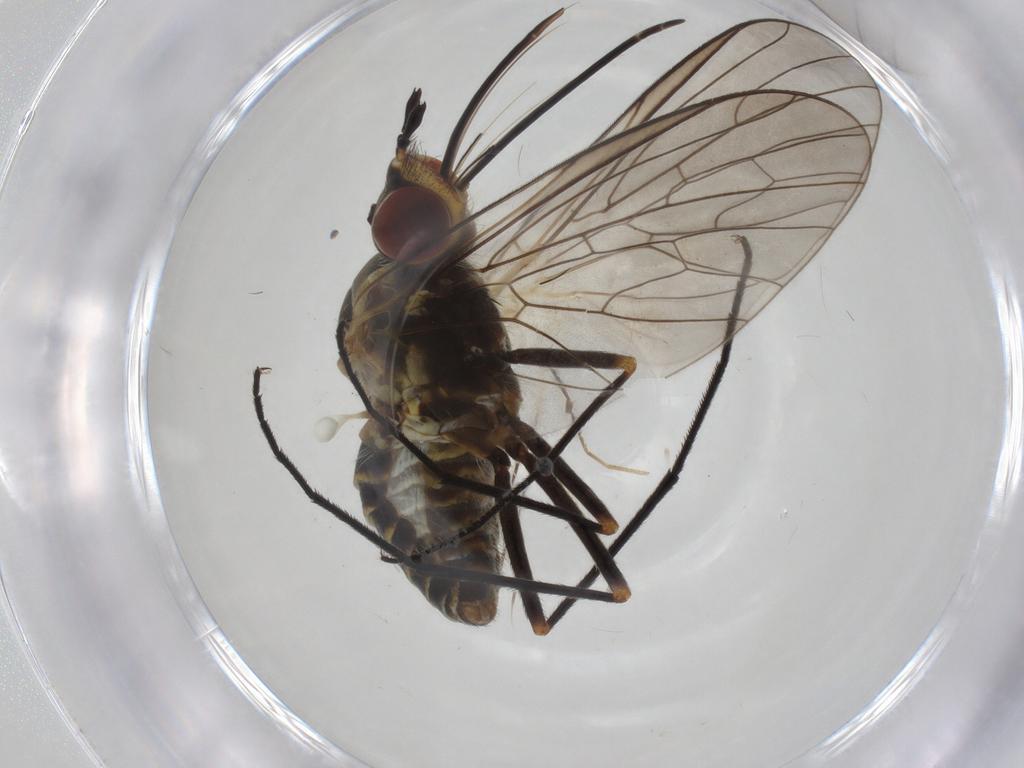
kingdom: Animalia
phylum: Arthropoda
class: Insecta
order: Diptera
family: Bombyliidae
